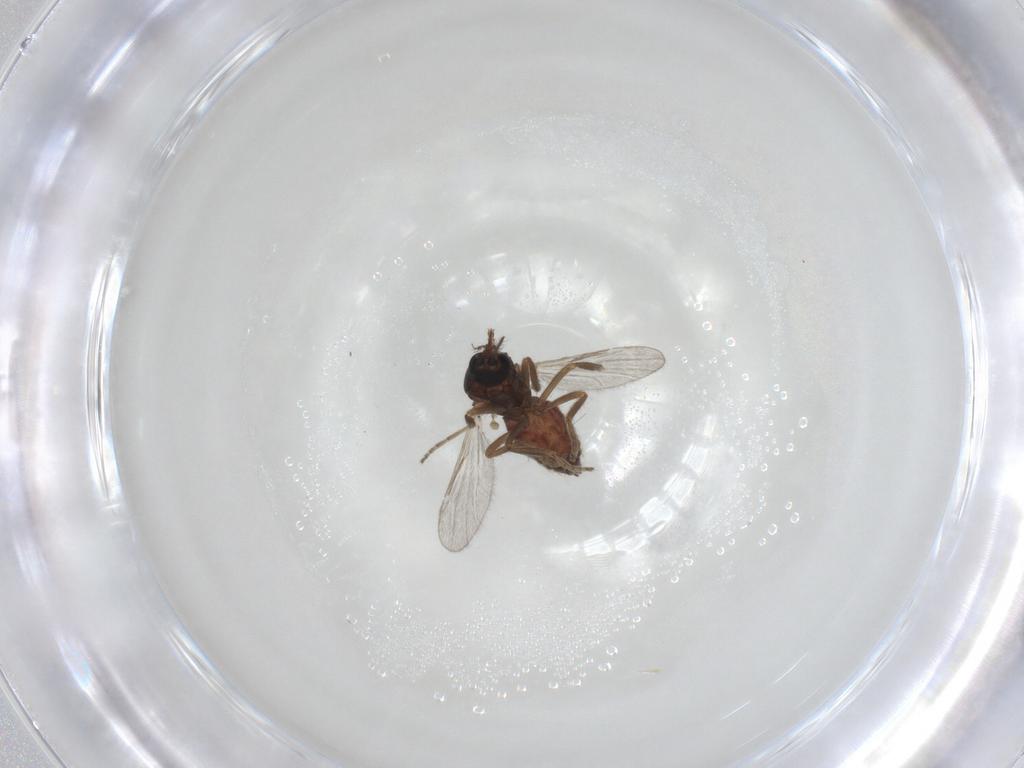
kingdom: Animalia
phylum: Arthropoda
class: Insecta
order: Diptera
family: Ceratopogonidae
